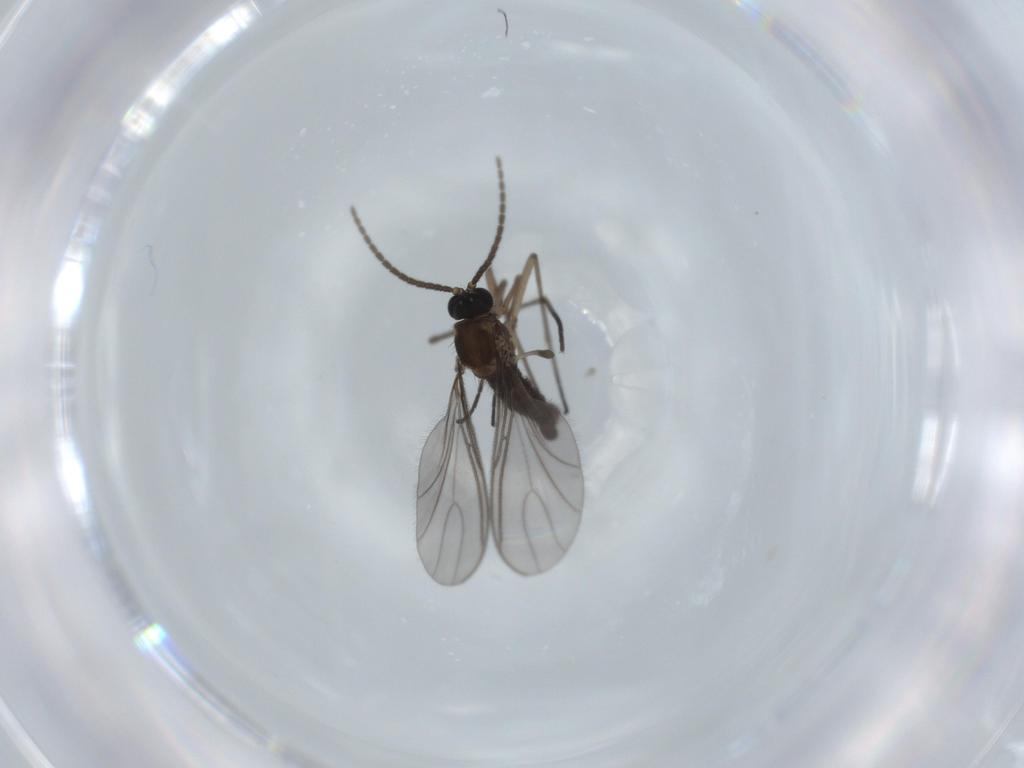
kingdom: Animalia
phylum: Arthropoda
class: Insecta
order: Diptera
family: Sciaridae
